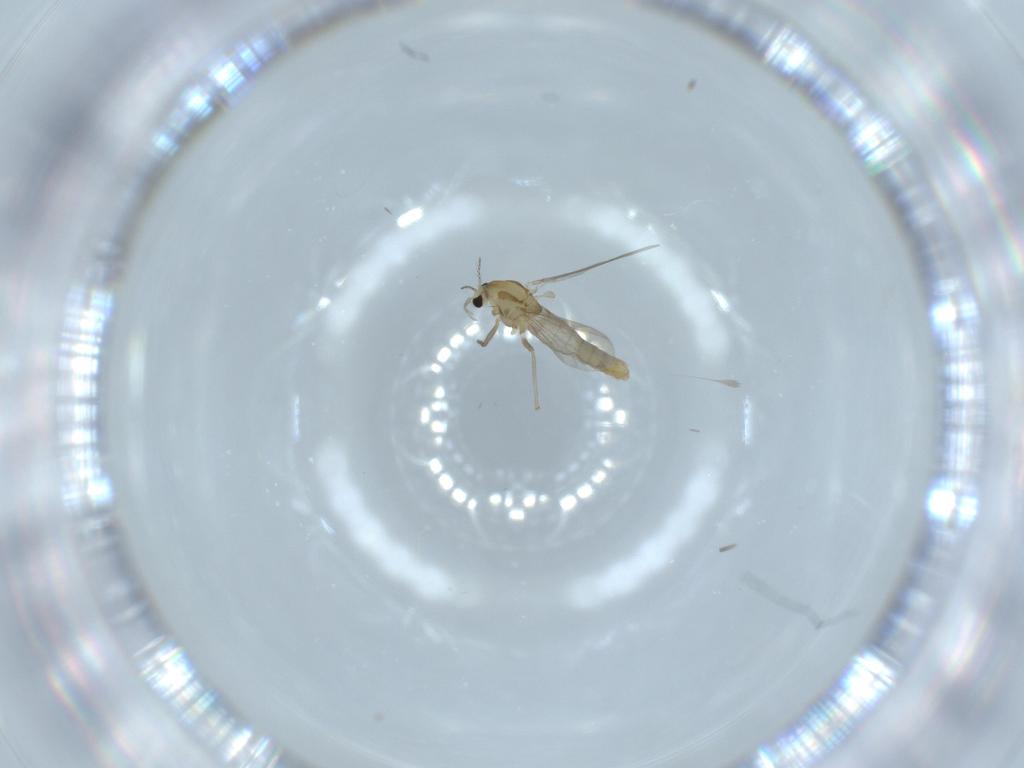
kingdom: Animalia
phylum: Arthropoda
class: Insecta
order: Diptera
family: Chironomidae
